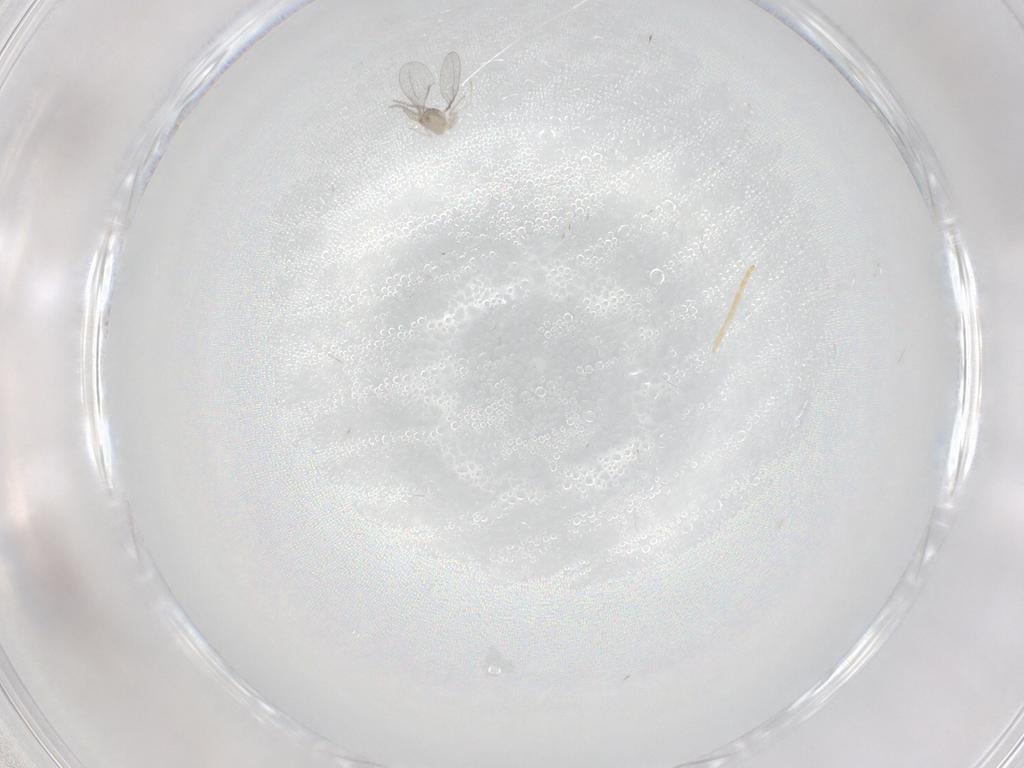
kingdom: Animalia
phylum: Arthropoda
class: Insecta
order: Diptera
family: Cecidomyiidae
